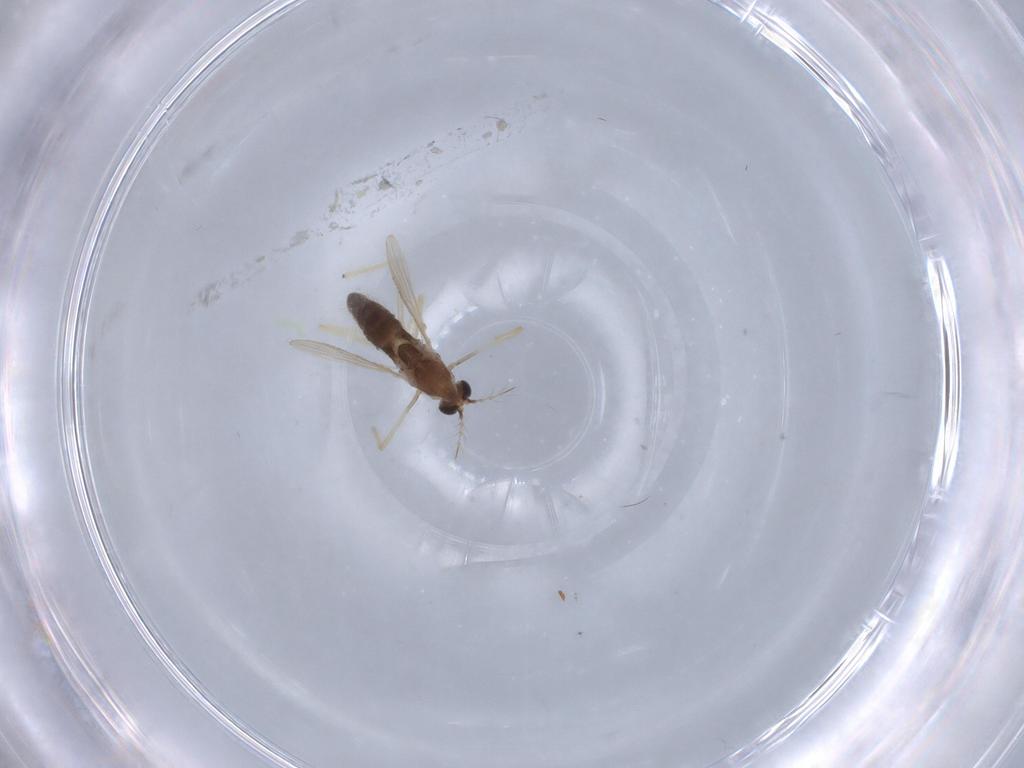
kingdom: Animalia
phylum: Arthropoda
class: Insecta
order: Diptera
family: Chironomidae
